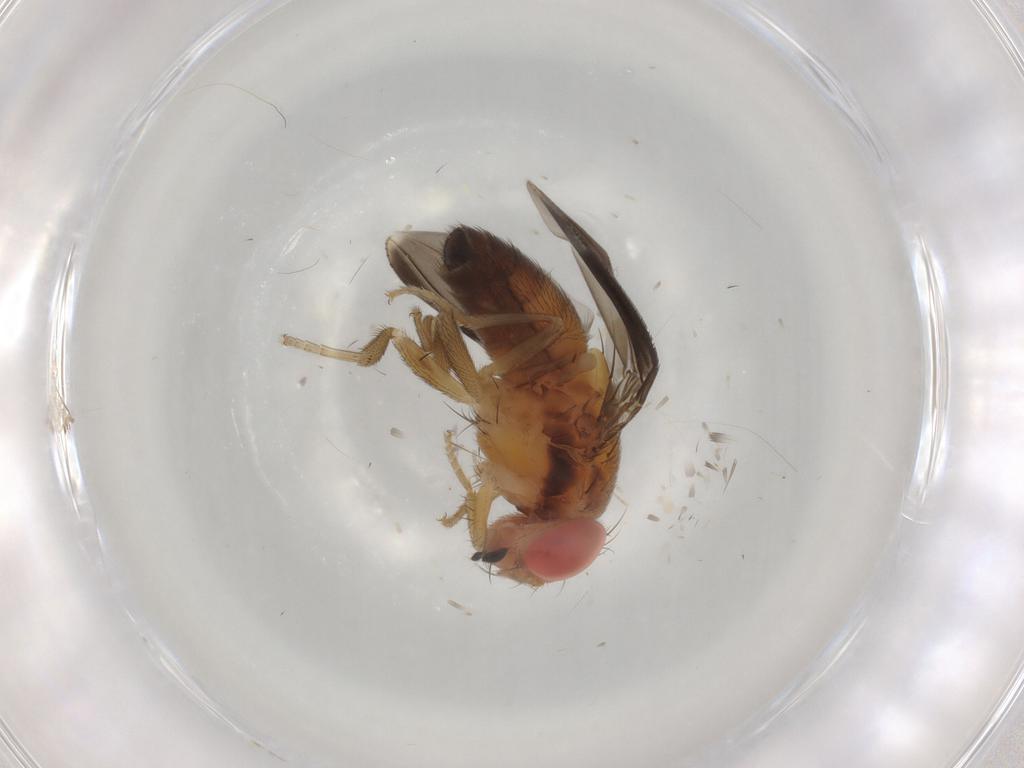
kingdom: Animalia
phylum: Arthropoda
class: Insecta
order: Diptera
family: Drosophilidae
